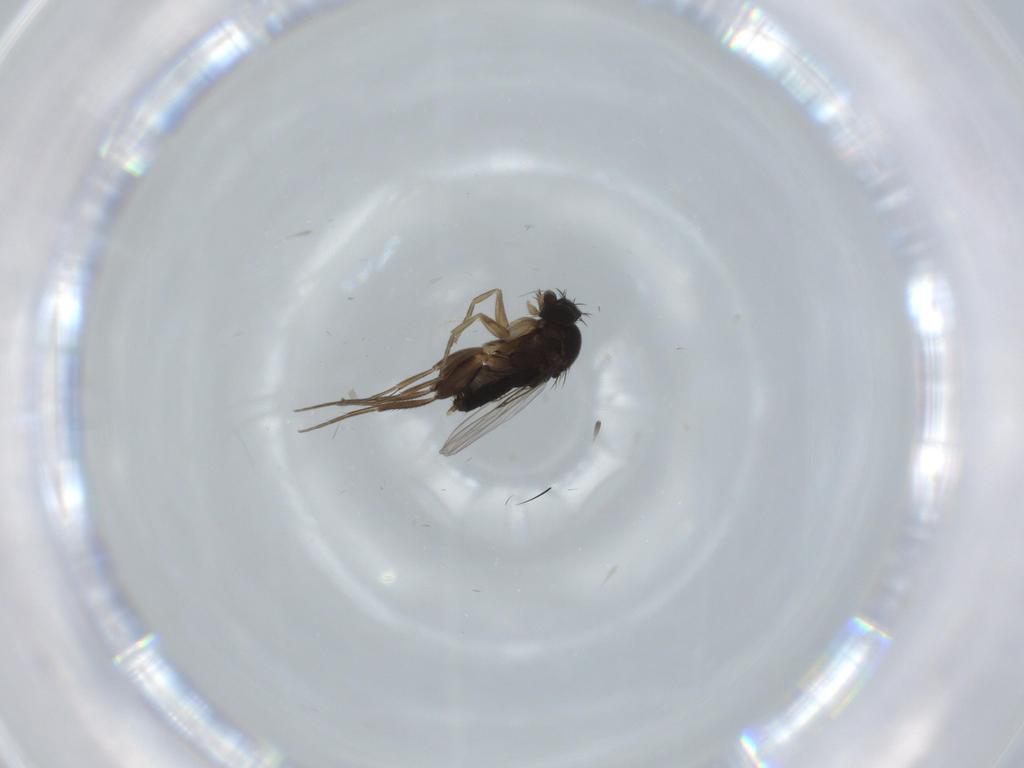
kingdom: Animalia
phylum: Arthropoda
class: Insecta
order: Diptera
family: Phoridae
